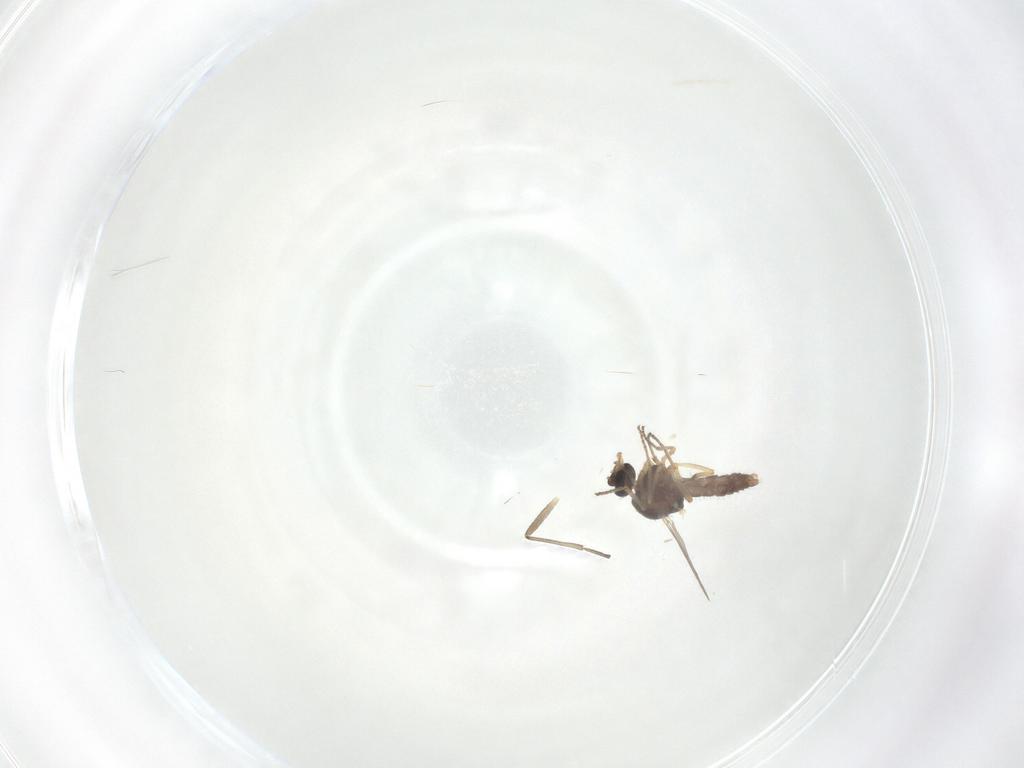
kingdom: Animalia
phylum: Arthropoda
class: Insecta
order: Diptera
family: Ceratopogonidae
